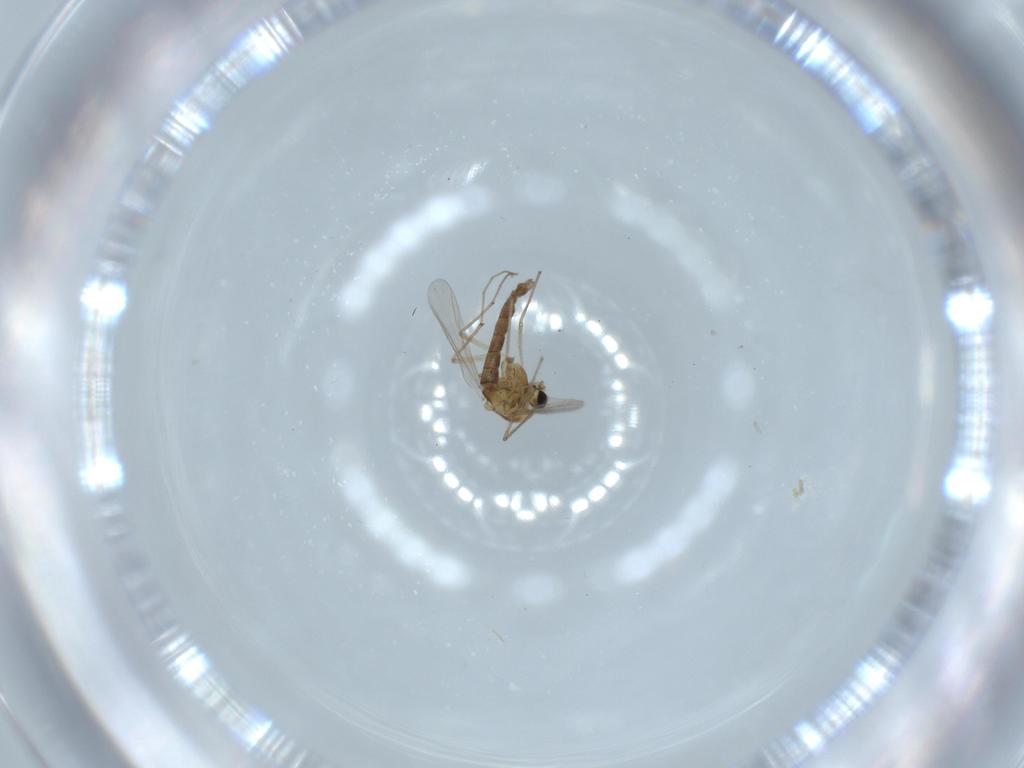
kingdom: Animalia
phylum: Arthropoda
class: Insecta
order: Diptera
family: Chironomidae
